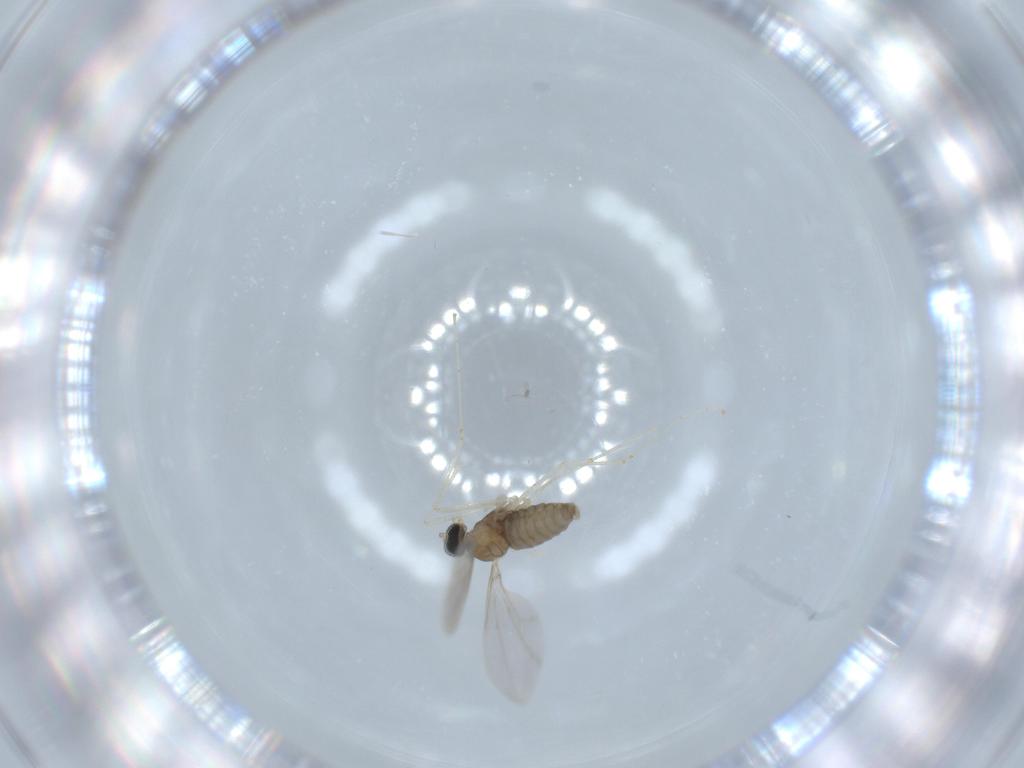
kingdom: Animalia
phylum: Arthropoda
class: Insecta
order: Diptera
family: Cecidomyiidae
